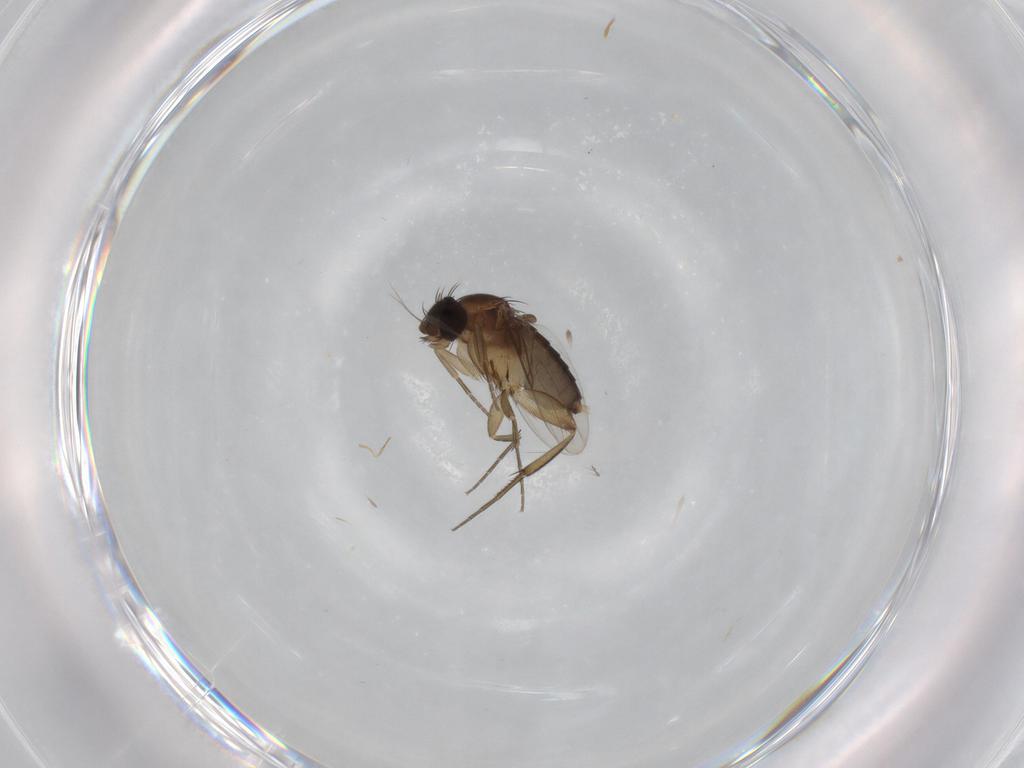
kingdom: Animalia
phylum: Arthropoda
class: Insecta
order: Diptera
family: Phoridae
